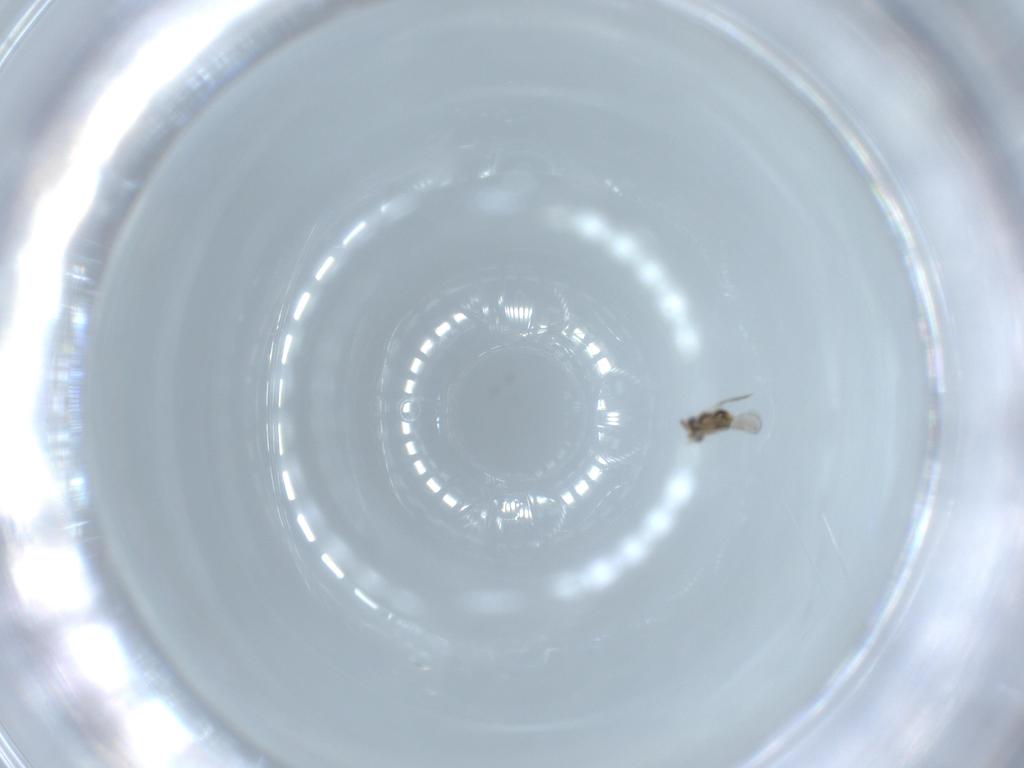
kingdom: Animalia
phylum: Arthropoda
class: Insecta
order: Hymenoptera
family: Aphelinidae
